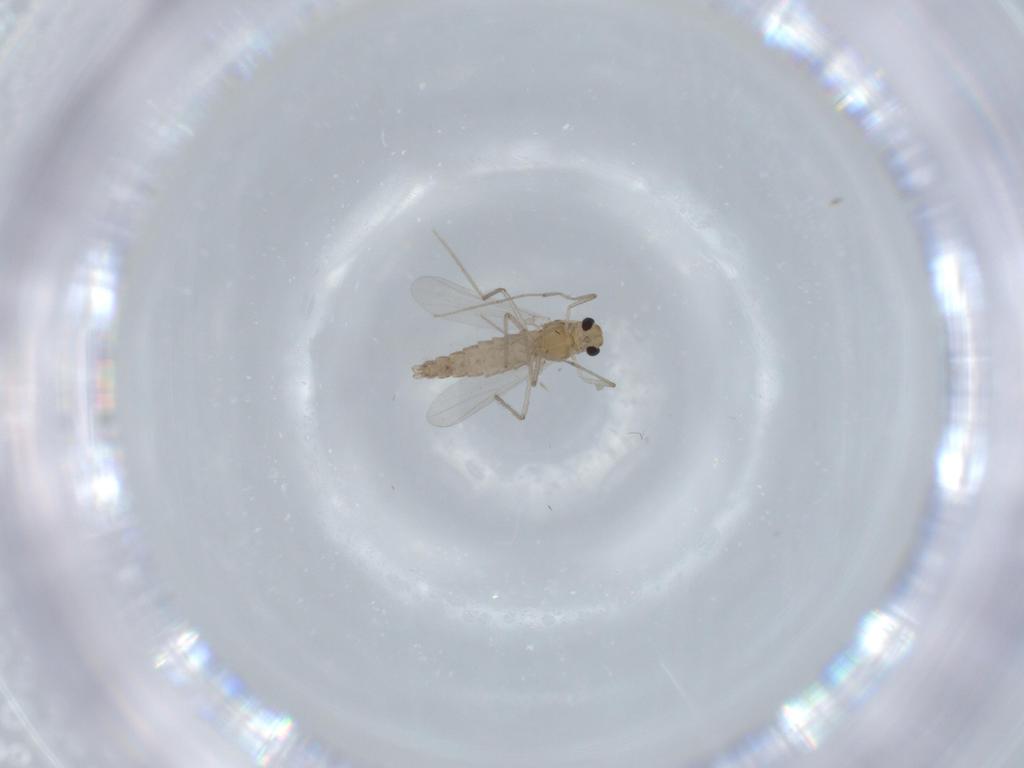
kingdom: Animalia
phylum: Arthropoda
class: Insecta
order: Diptera
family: Chironomidae
